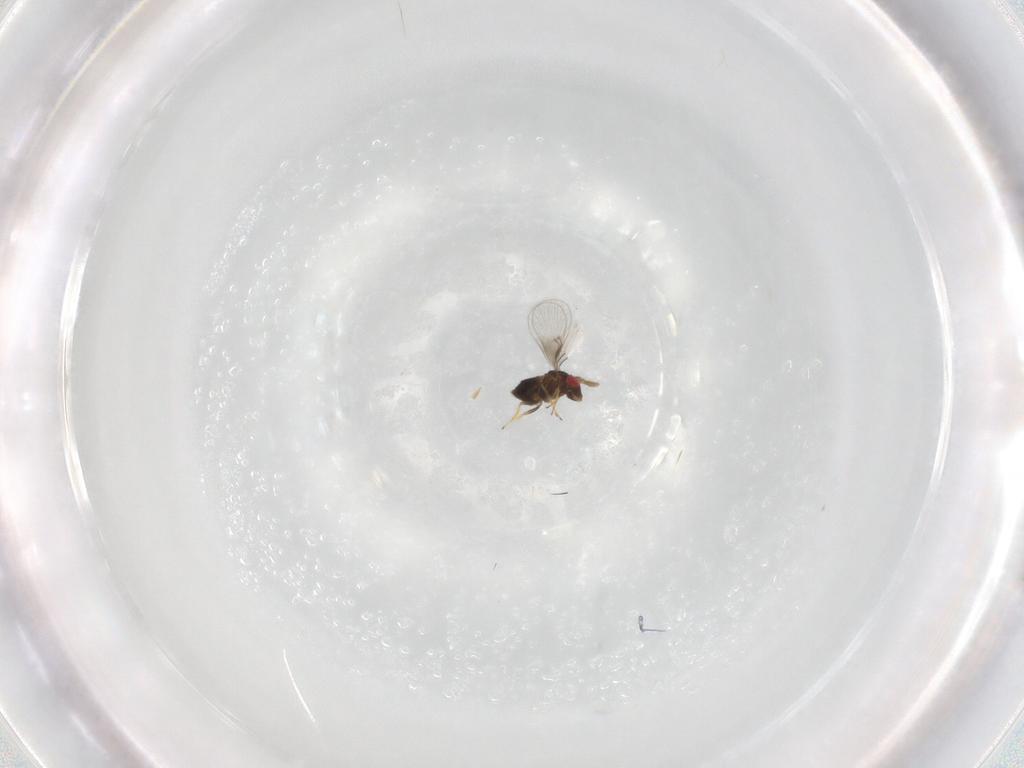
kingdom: Animalia
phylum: Arthropoda
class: Insecta
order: Hymenoptera
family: Trichogrammatidae
